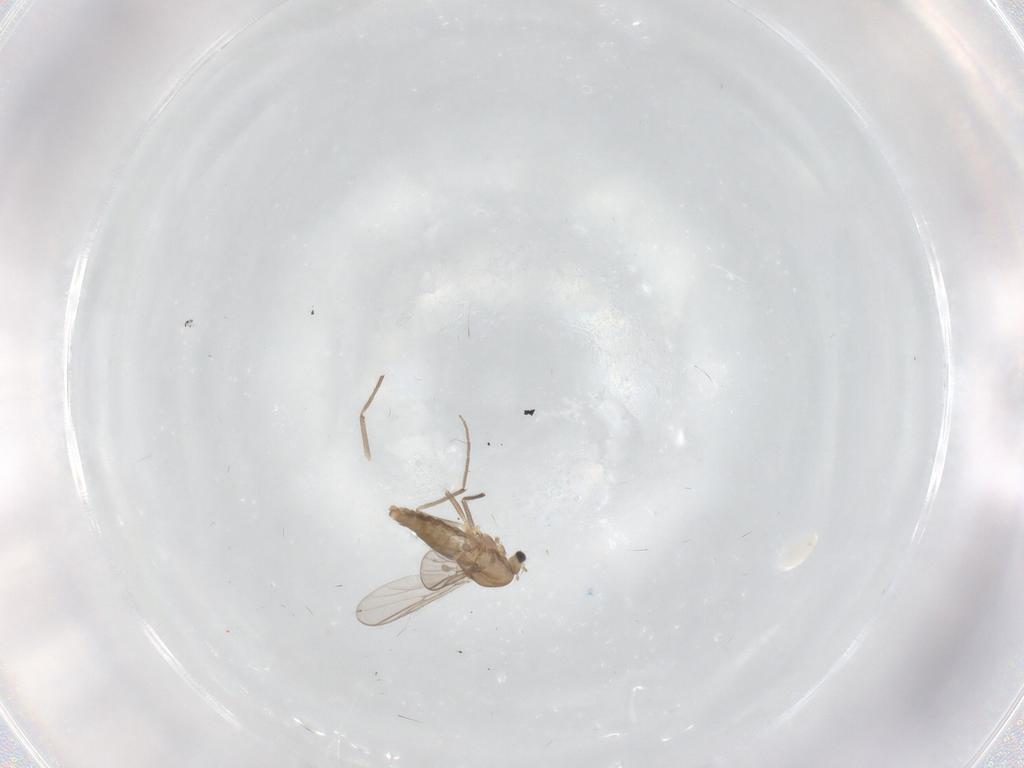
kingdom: Animalia
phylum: Arthropoda
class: Insecta
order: Diptera
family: Chironomidae
